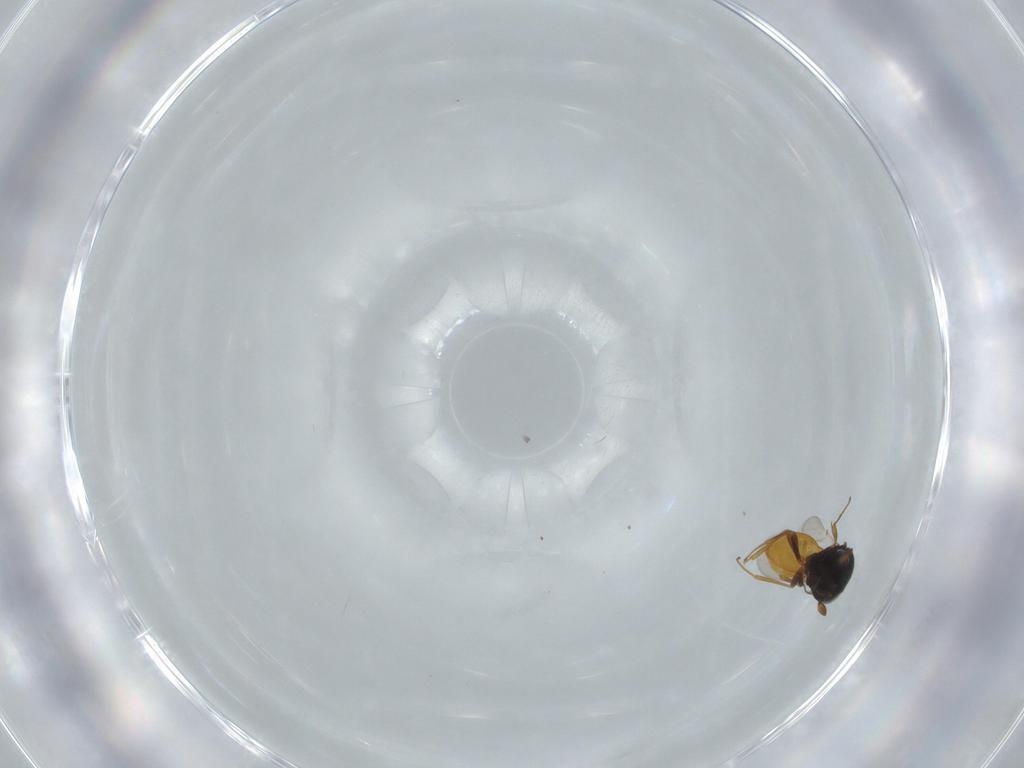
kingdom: Animalia
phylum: Arthropoda
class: Insecta
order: Hymenoptera
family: Scelionidae
